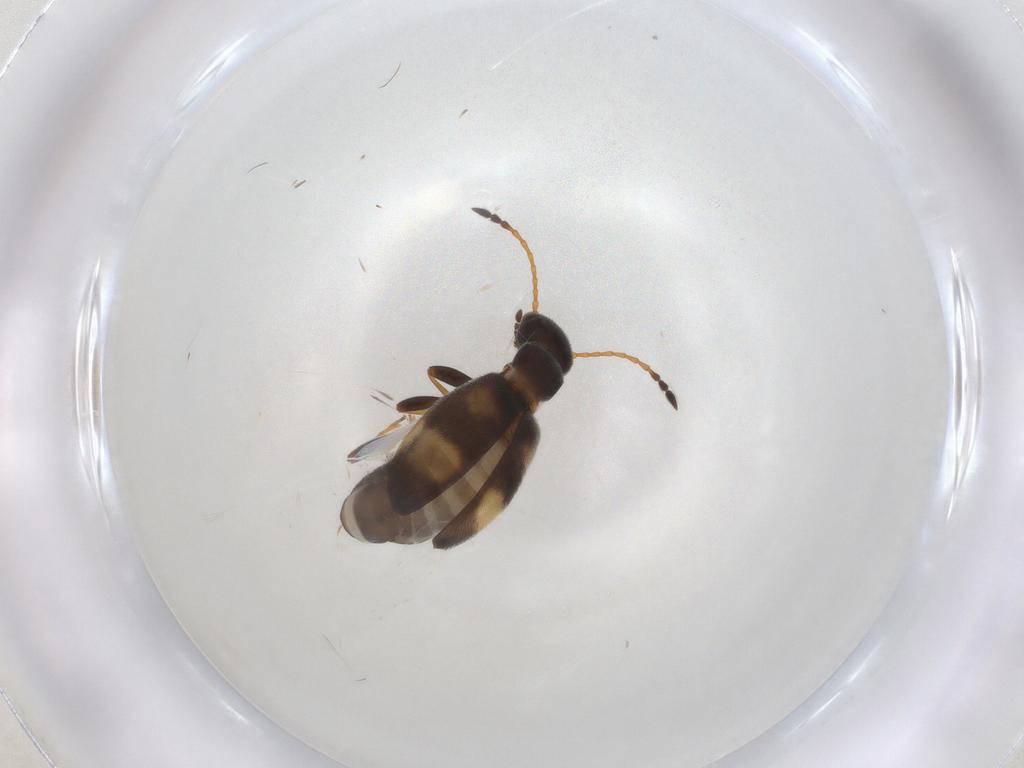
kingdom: Animalia
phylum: Arthropoda
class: Insecta
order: Coleoptera
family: Anthicidae
